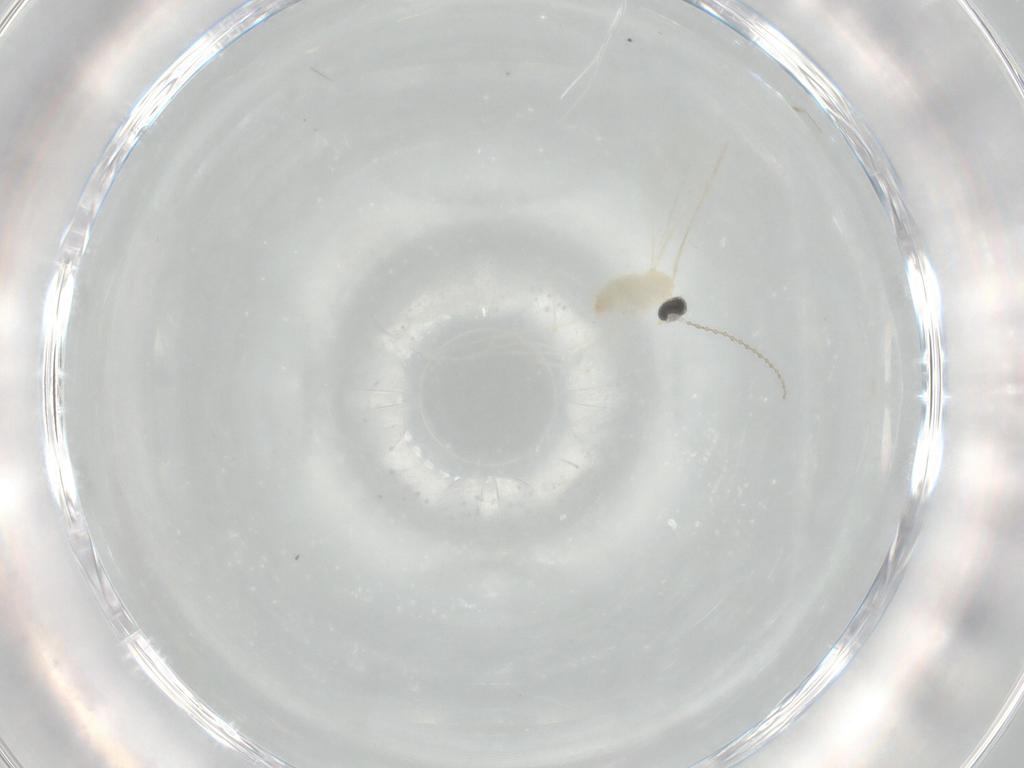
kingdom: Animalia
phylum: Arthropoda
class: Insecta
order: Diptera
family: Cecidomyiidae
